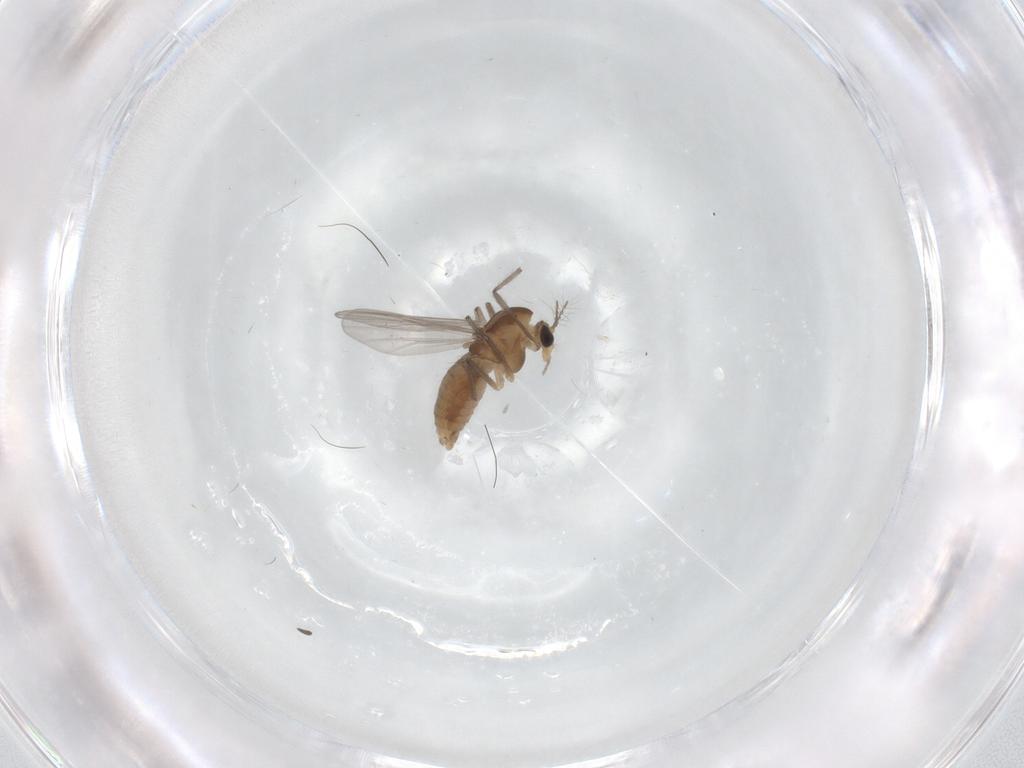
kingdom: Animalia
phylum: Arthropoda
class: Insecta
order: Diptera
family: Chironomidae
